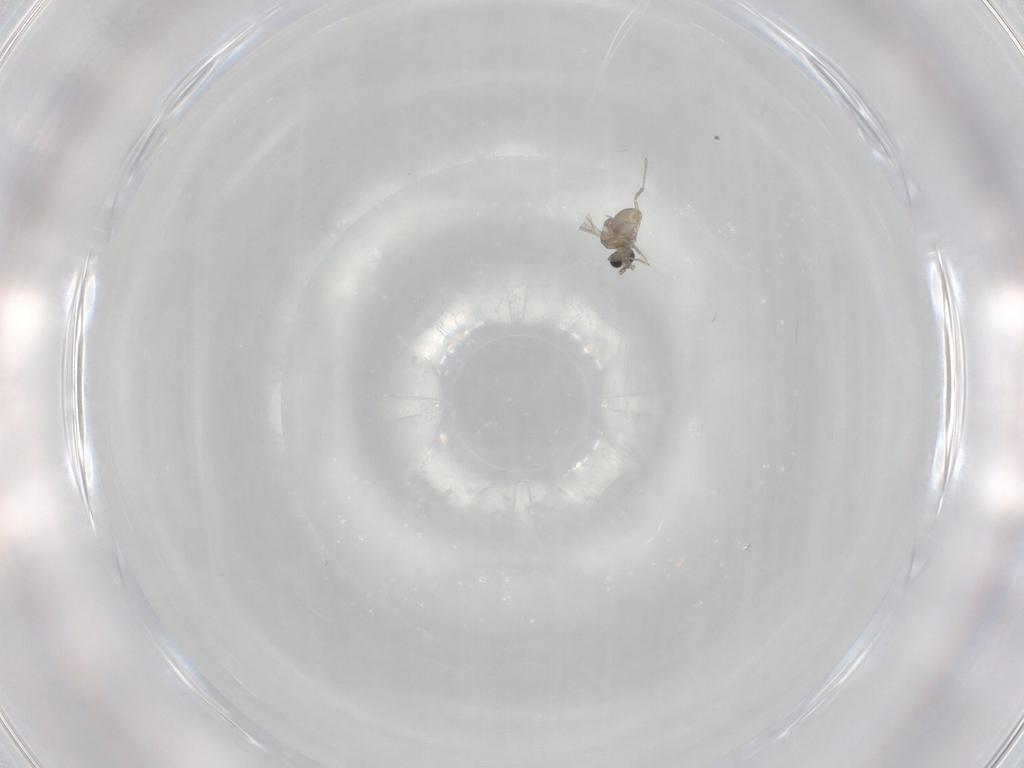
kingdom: Animalia
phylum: Arthropoda
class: Insecta
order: Diptera
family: Cecidomyiidae
